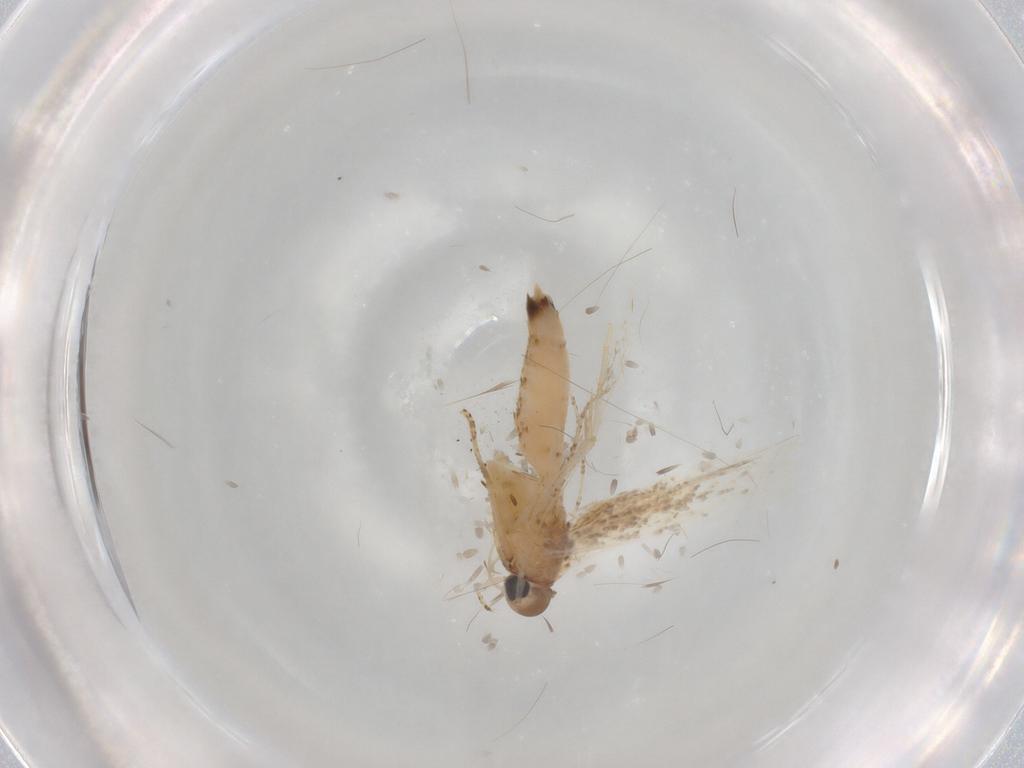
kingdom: Animalia
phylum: Arthropoda
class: Insecta
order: Lepidoptera
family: Crambidae
